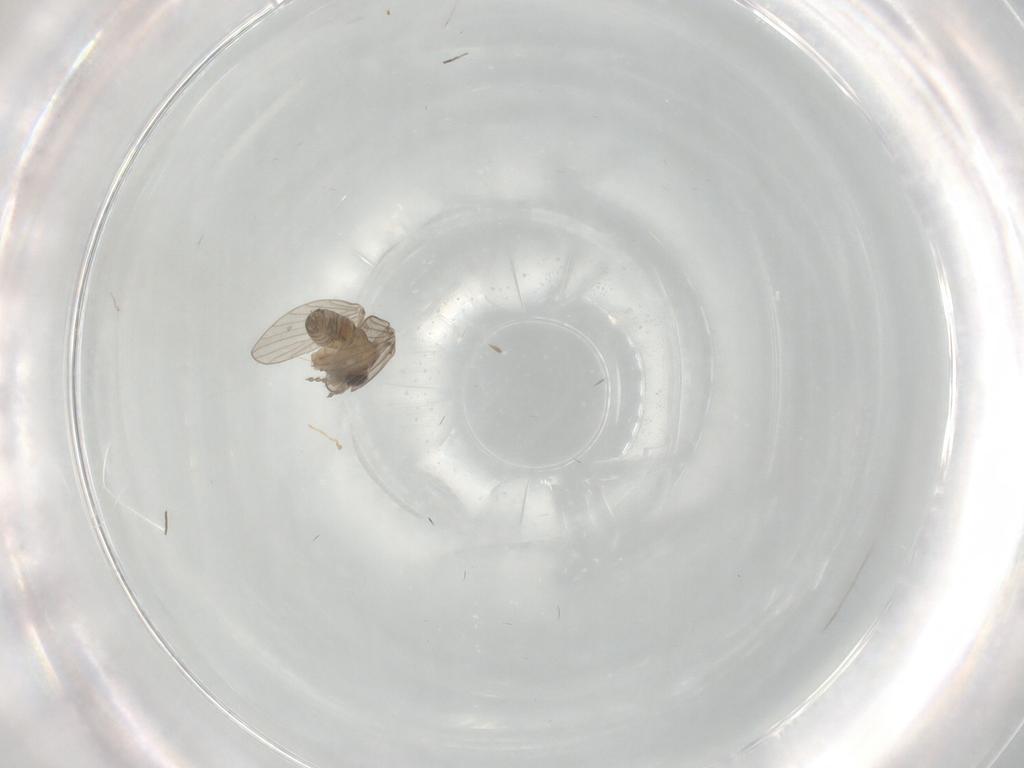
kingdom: Animalia
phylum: Arthropoda
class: Insecta
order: Diptera
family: Phoridae
